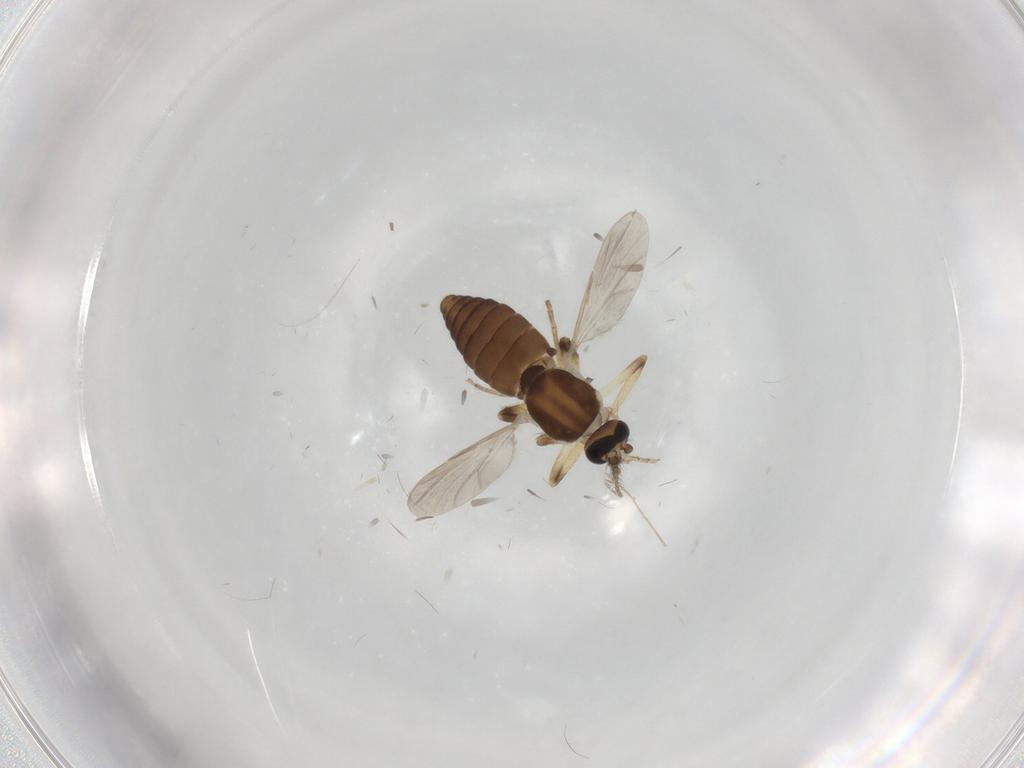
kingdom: Animalia
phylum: Arthropoda
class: Insecta
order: Diptera
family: Ceratopogonidae
